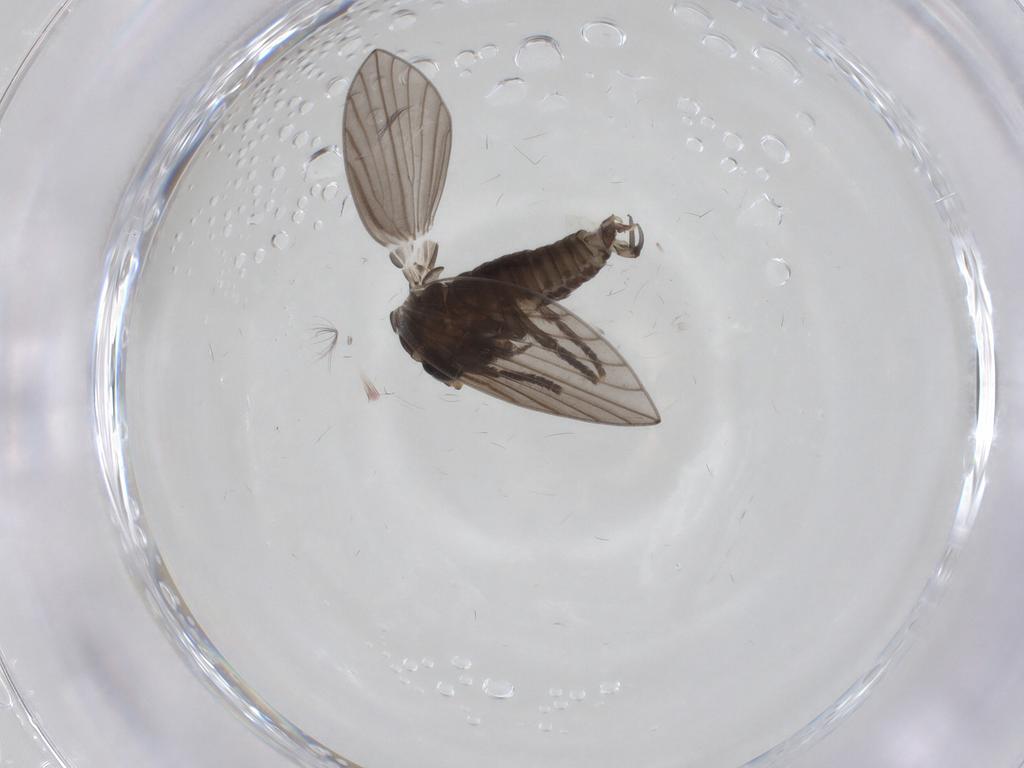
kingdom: Animalia
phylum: Arthropoda
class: Insecta
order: Diptera
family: Psychodidae
